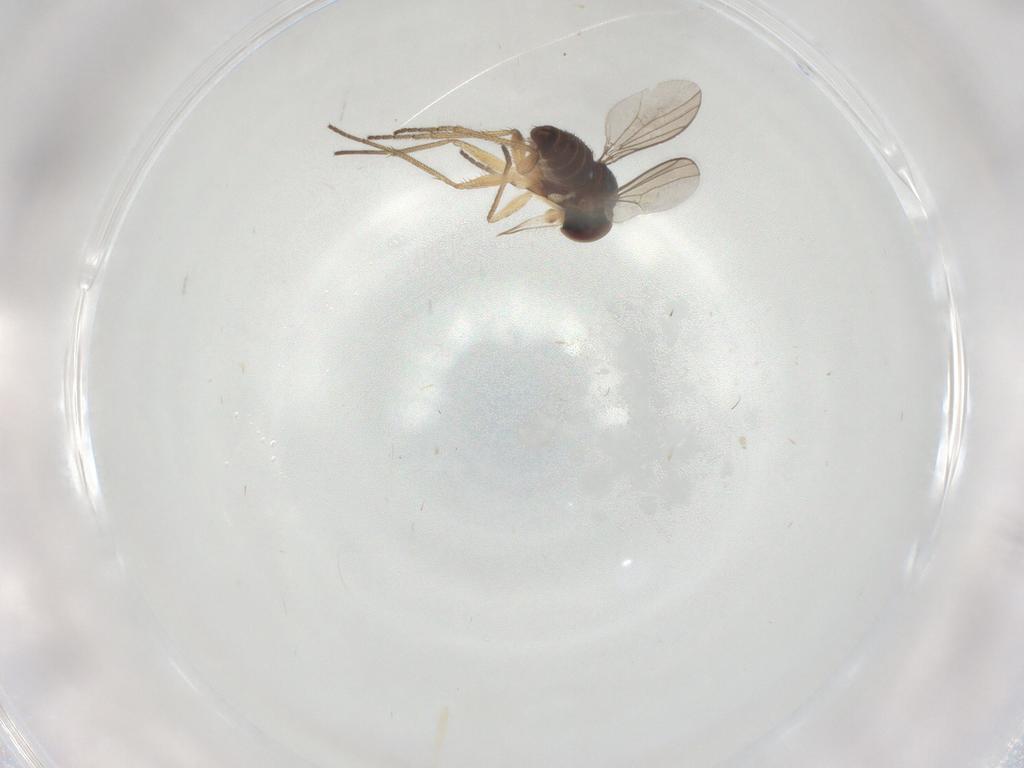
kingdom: Animalia
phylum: Arthropoda
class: Insecta
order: Diptera
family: Dolichopodidae
